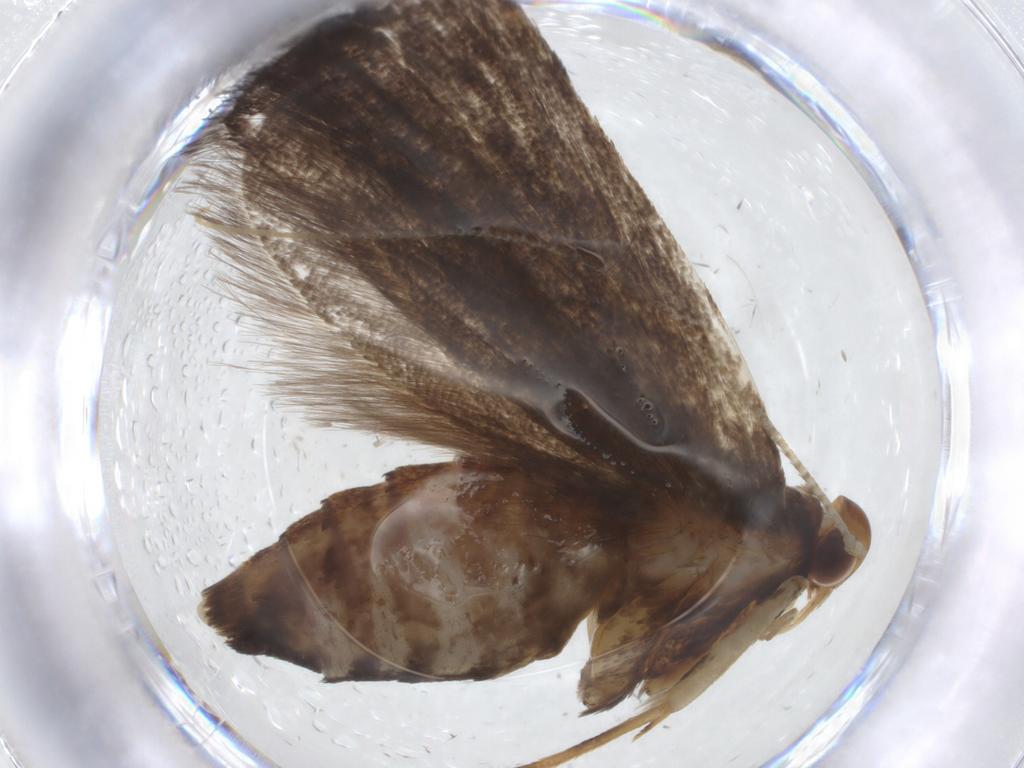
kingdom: Animalia
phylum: Arthropoda
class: Insecta
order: Lepidoptera
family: Lecithoceridae
